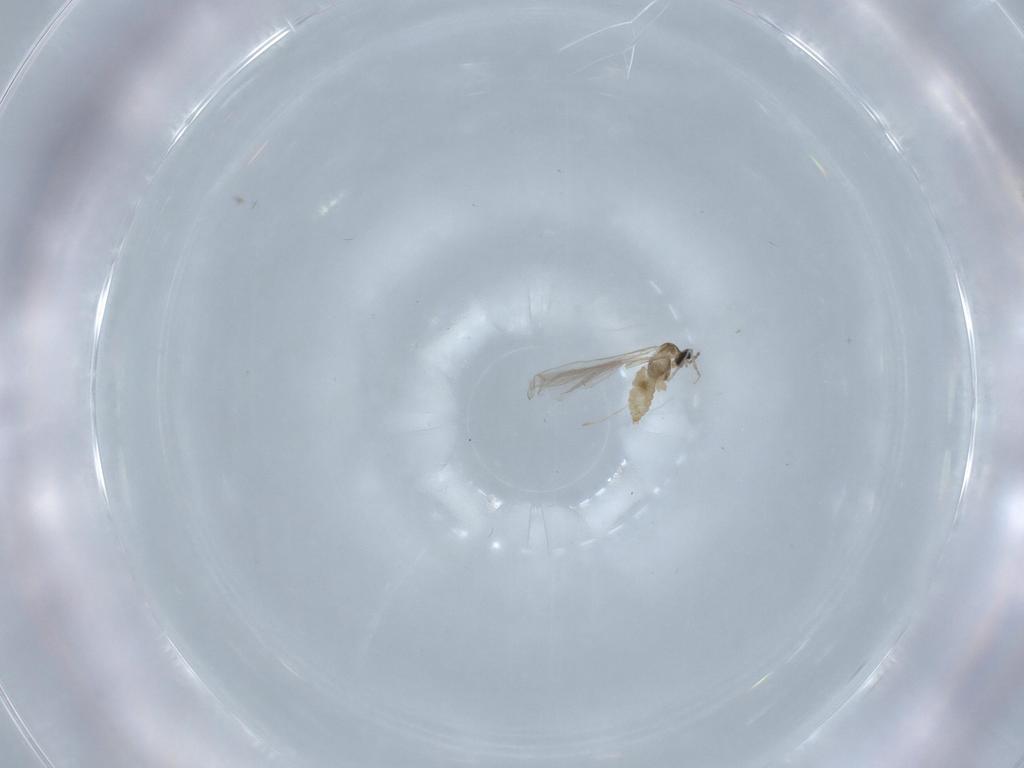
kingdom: Animalia
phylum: Arthropoda
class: Insecta
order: Diptera
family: Cecidomyiidae
